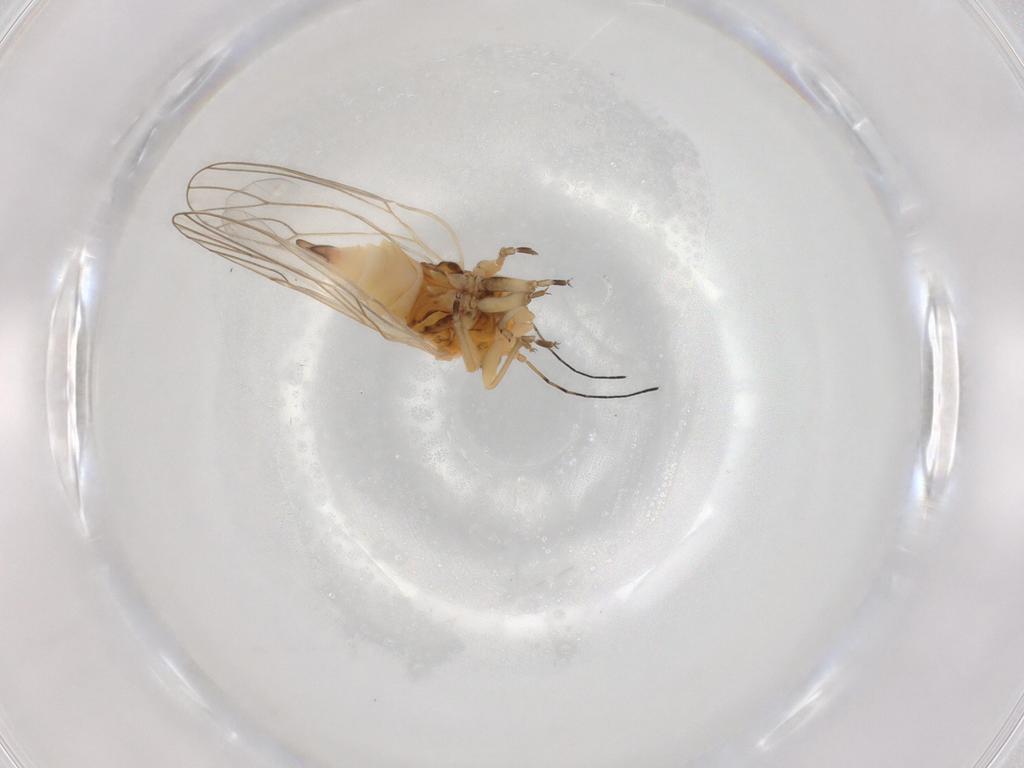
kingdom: Animalia
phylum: Arthropoda
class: Insecta
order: Hemiptera
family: Aphididae
